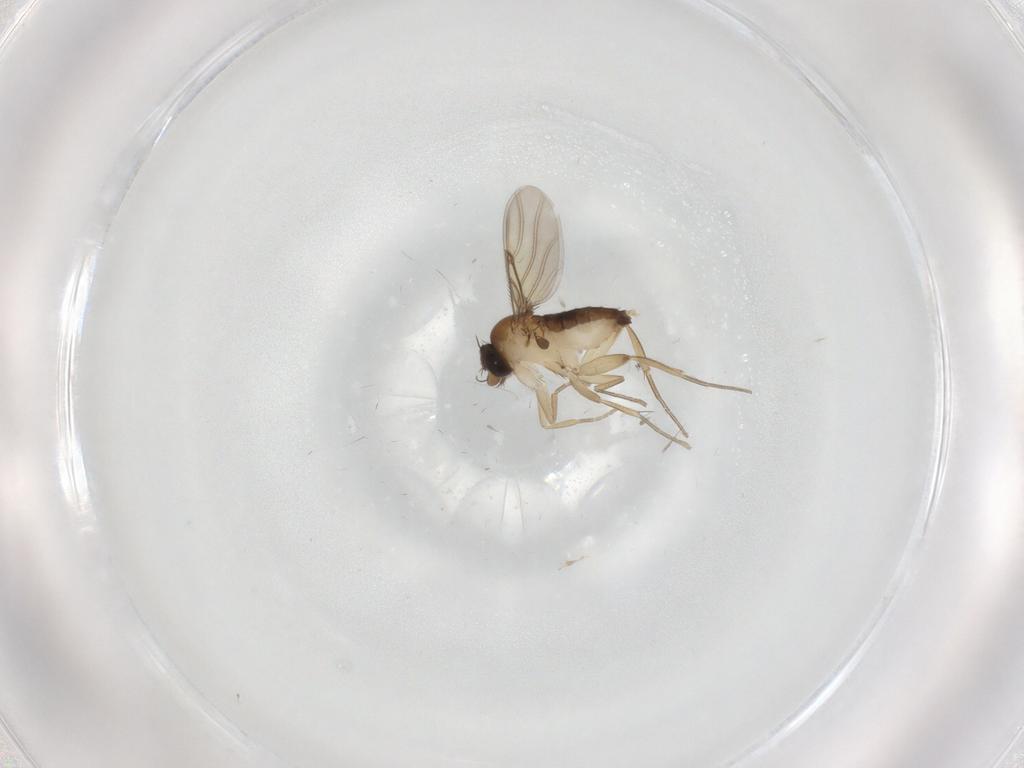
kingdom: Animalia
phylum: Arthropoda
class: Insecta
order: Diptera
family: Phoridae
